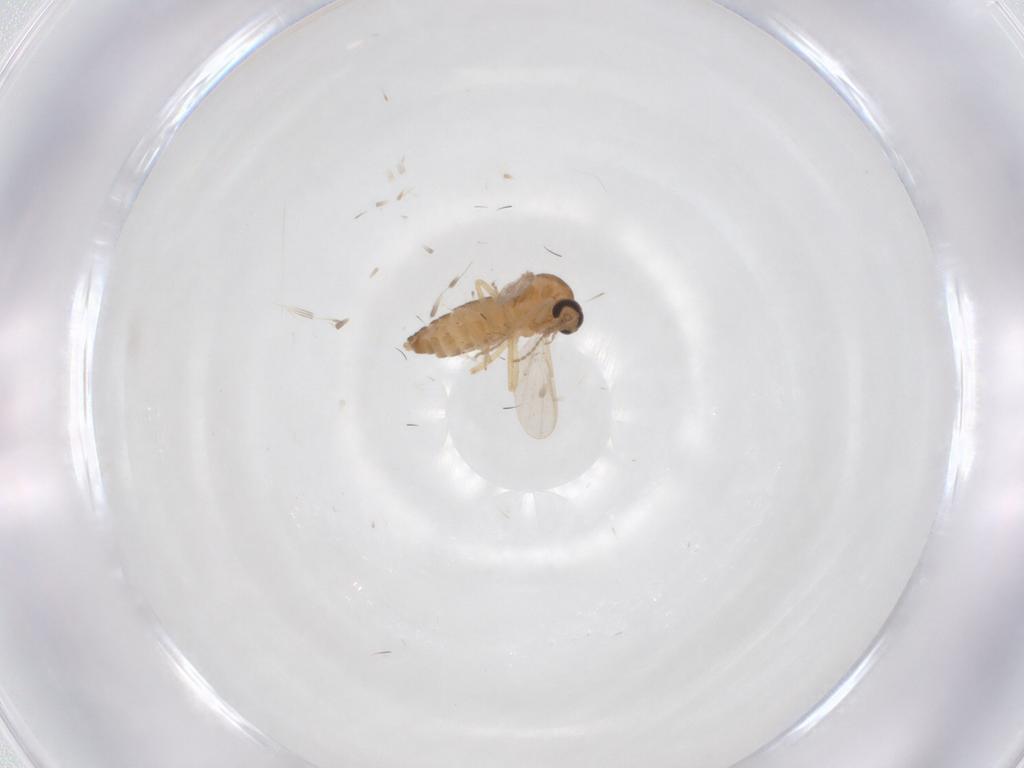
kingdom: Animalia
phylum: Arthropoda
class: Insecta
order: Diptera
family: Ceratopogonidae
